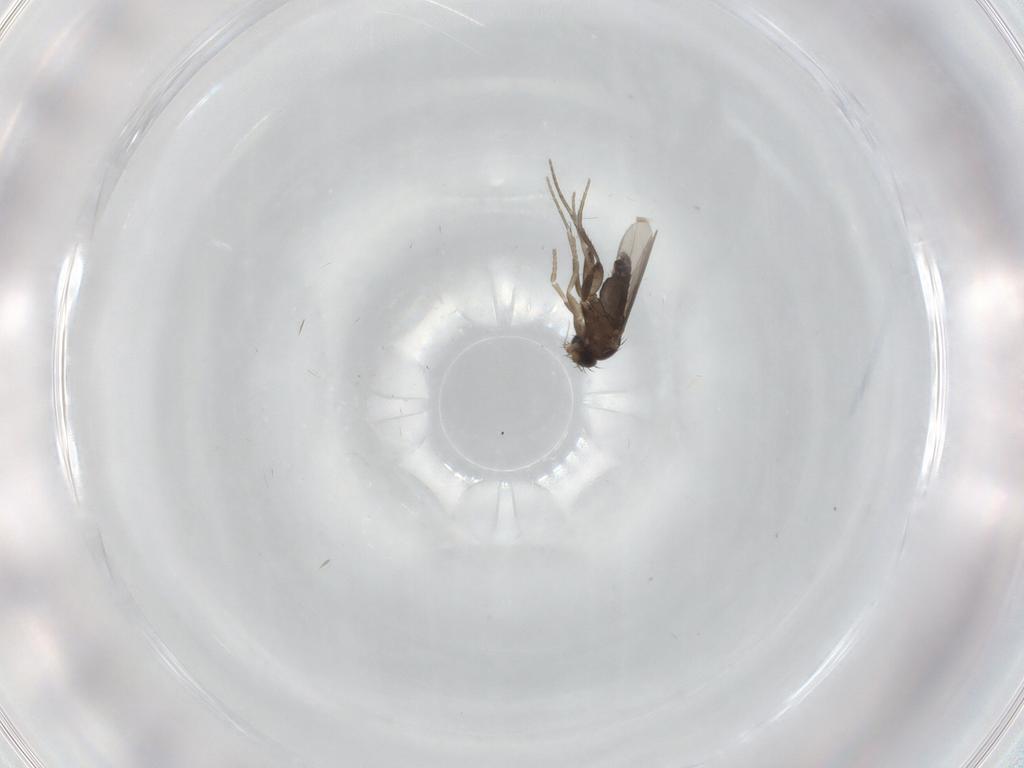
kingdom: Animalia
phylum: Arthropoda
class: Insecta
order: Diptera
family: Phoridae
